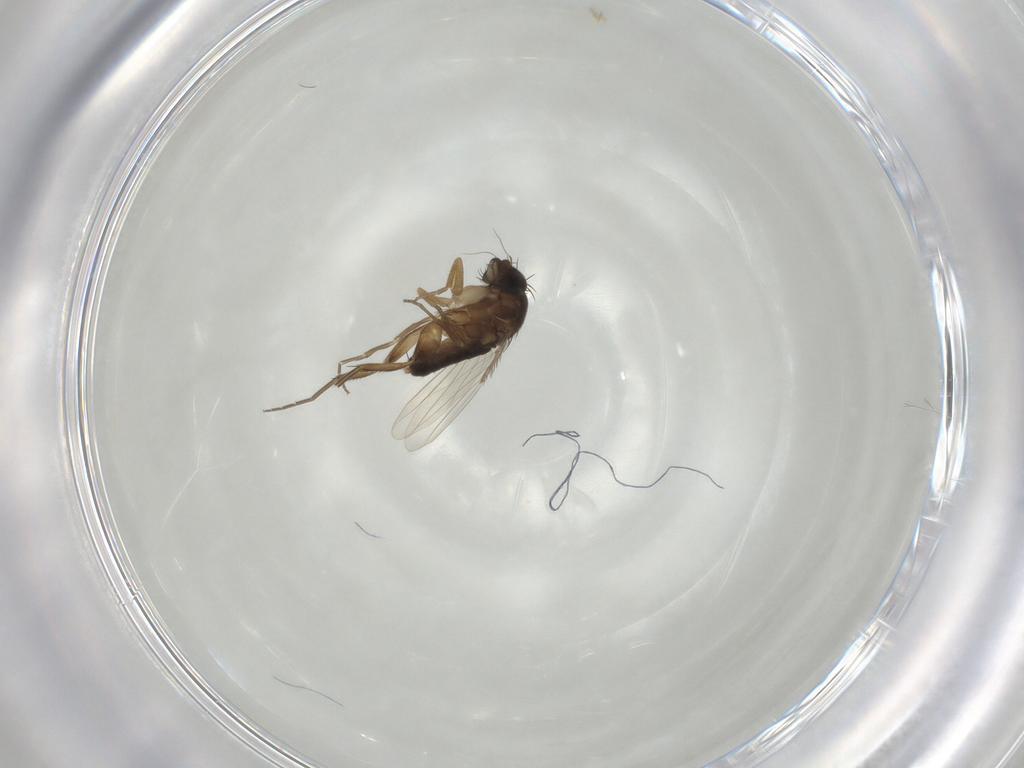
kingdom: Animalia
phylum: Arthropoda
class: Insecta
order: Diptera
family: Phoridae
